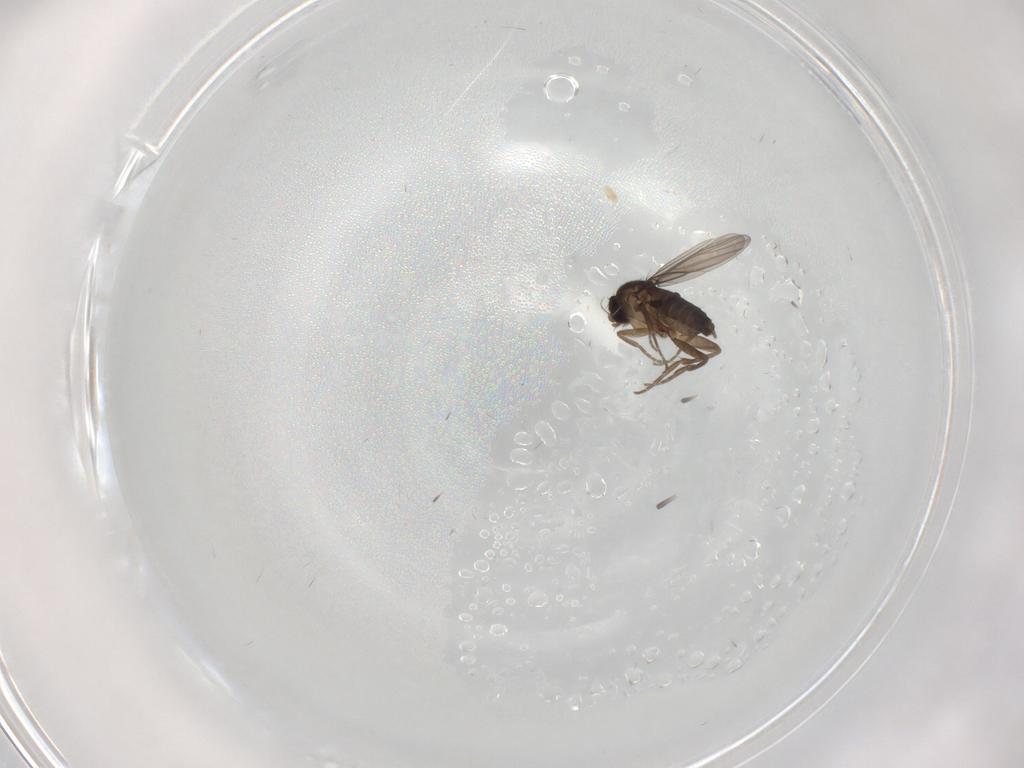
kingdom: Animalia
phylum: Arthropoda
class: Insecta
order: Diptera
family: Phoridae
